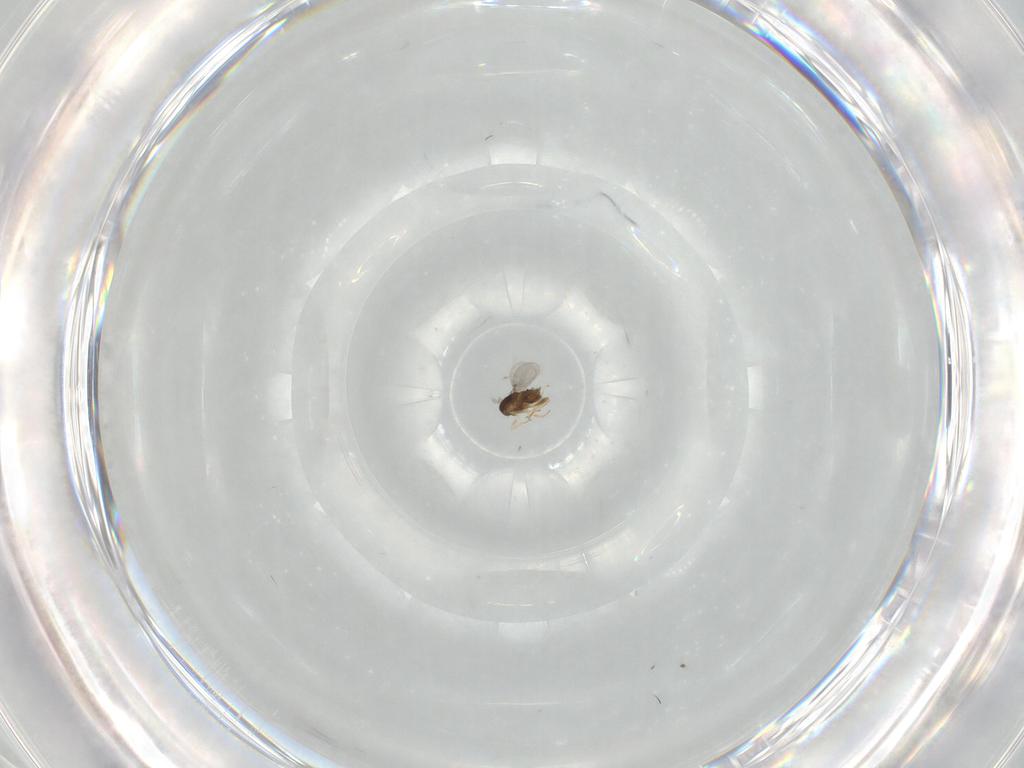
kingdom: Animalia
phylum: Arthropoda
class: Insecta
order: Hymenoptera
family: Encyrtidae
